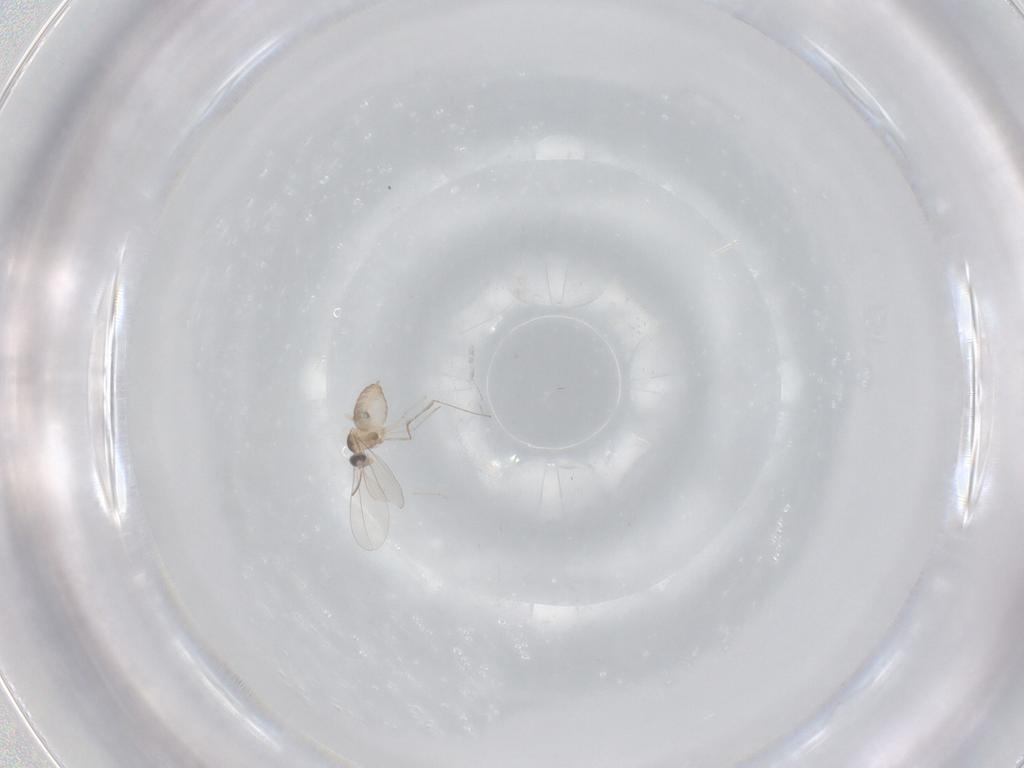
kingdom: Animalia
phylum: Arthropoda
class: Insecta
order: Diptera
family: Cecidomyiidae
